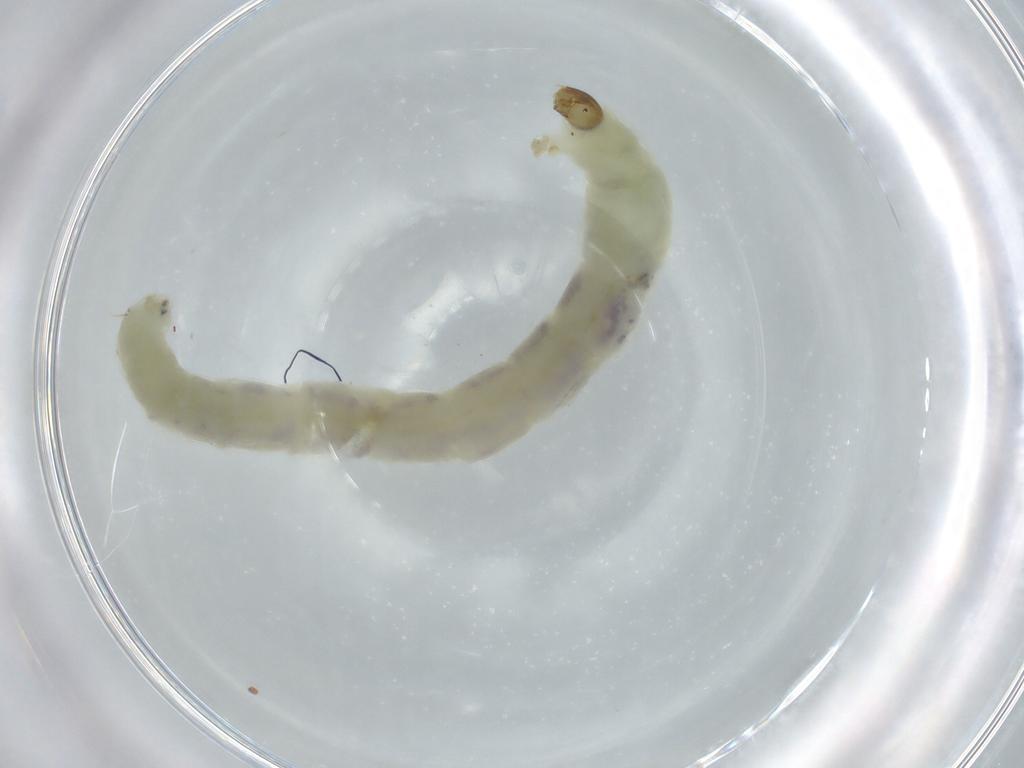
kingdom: Animalia
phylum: Arthropoda
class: Insecta
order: Diptera
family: Chironomidae
